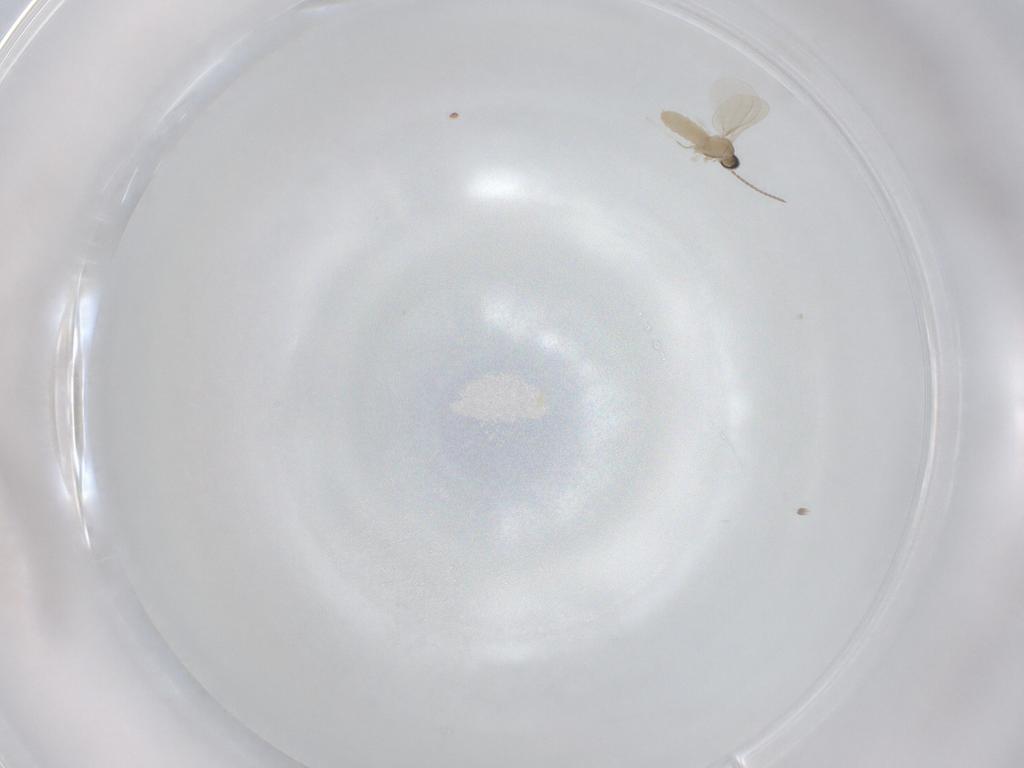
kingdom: Animalia
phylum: Arthropoda
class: Insecta
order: Diptera
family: Cecidomyiidae
